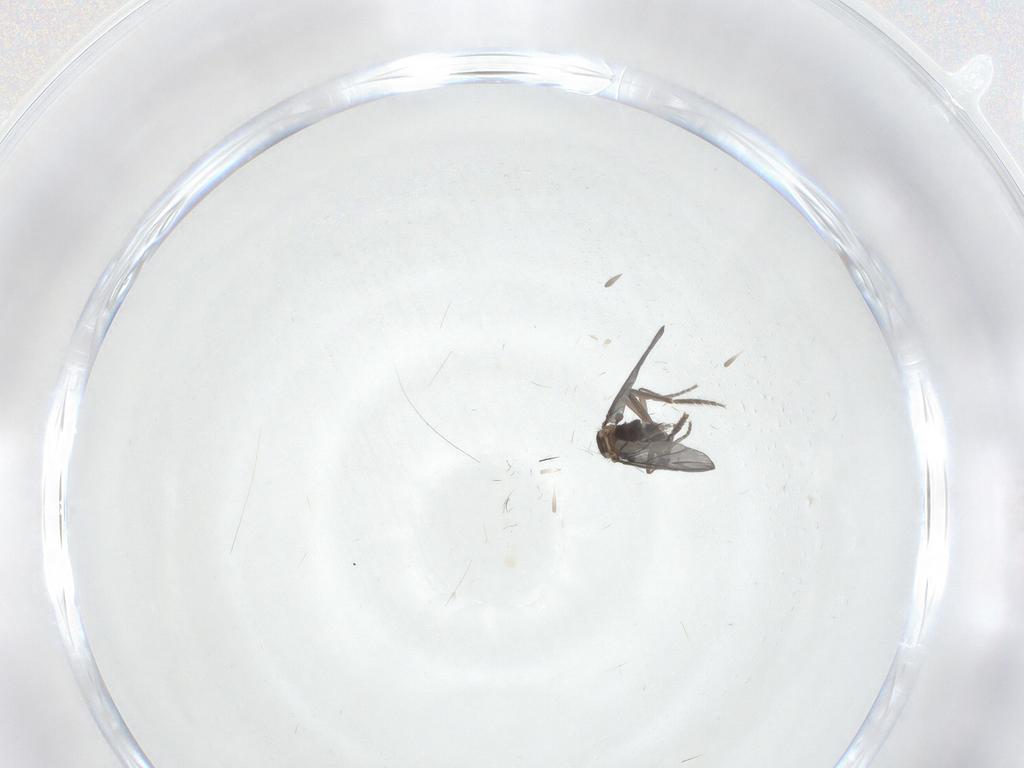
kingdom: Animalia
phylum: Arthropoda
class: Insecta
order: Diptera
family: Phoridae
